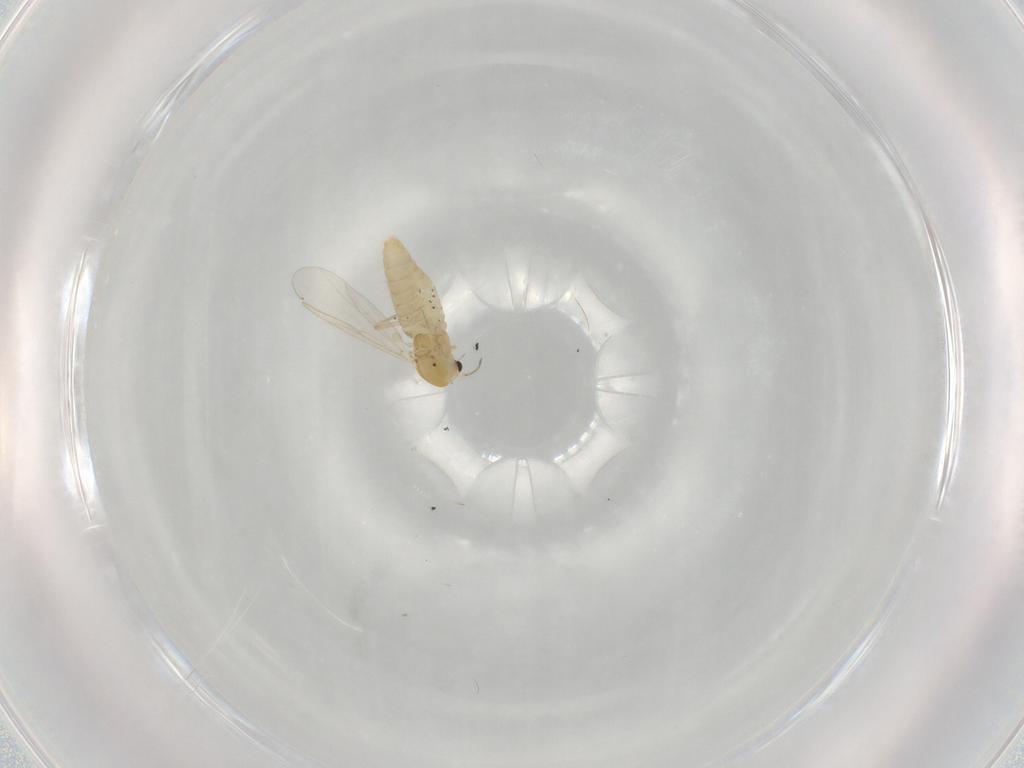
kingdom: Animalia
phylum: Arthropoda
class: Insecta
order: Diptera
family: Chironomidae
